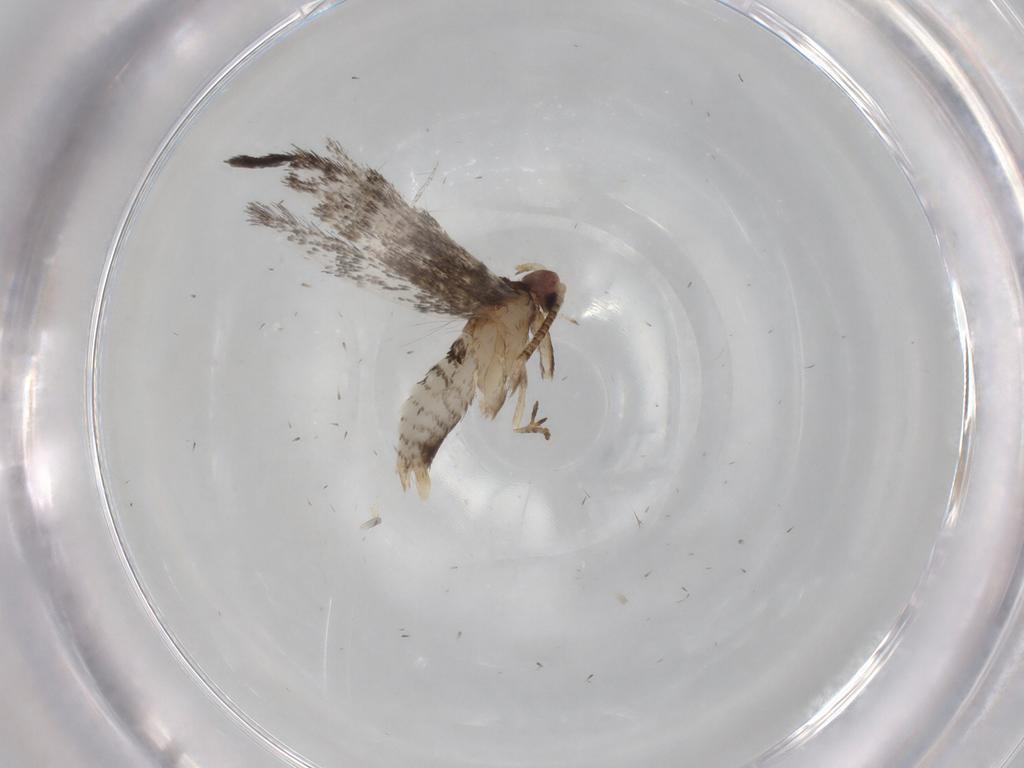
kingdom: Animalia
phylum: Arthropoda
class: Insecta
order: Lepidoptera
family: Tineidae
